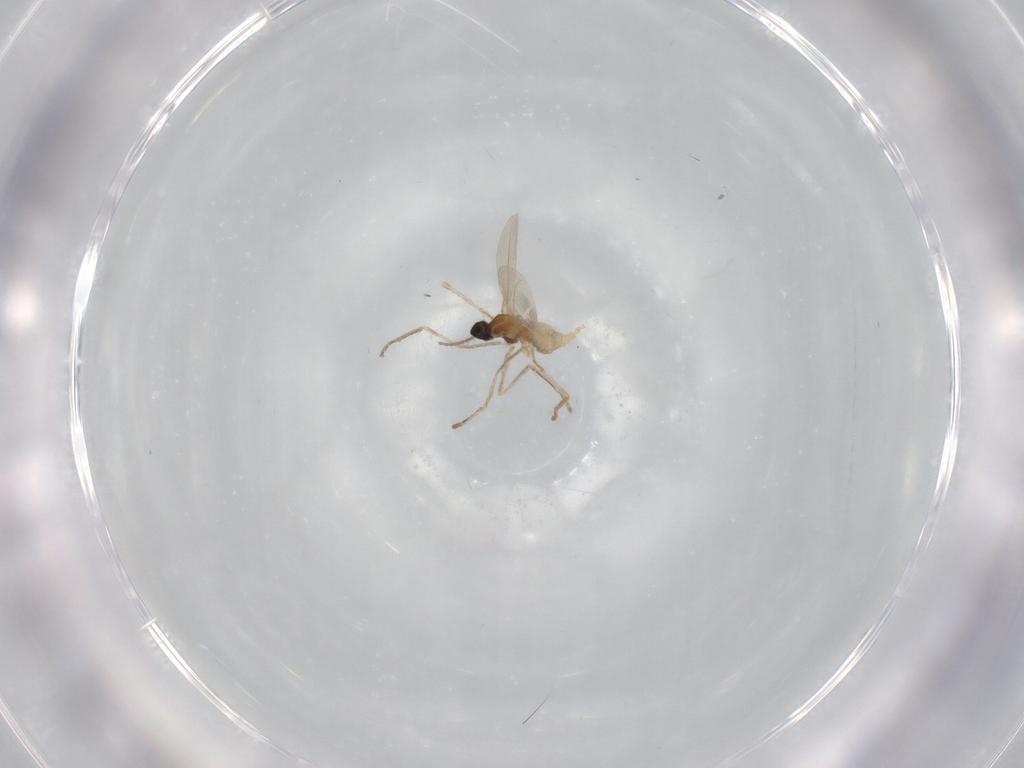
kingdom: Animalia
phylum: Arthropoda
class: Insecta
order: Diptera
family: Cecidomyiidae
